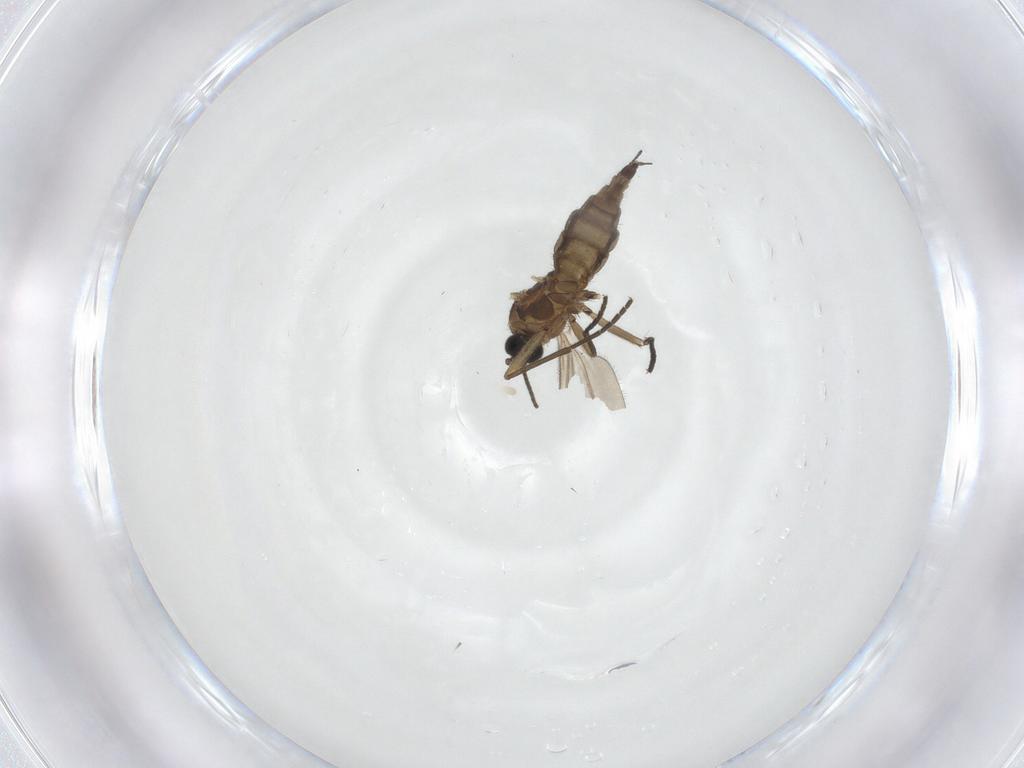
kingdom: Animalia
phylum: Arthropoda
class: Insecta
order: Diptera
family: Sciaridae
